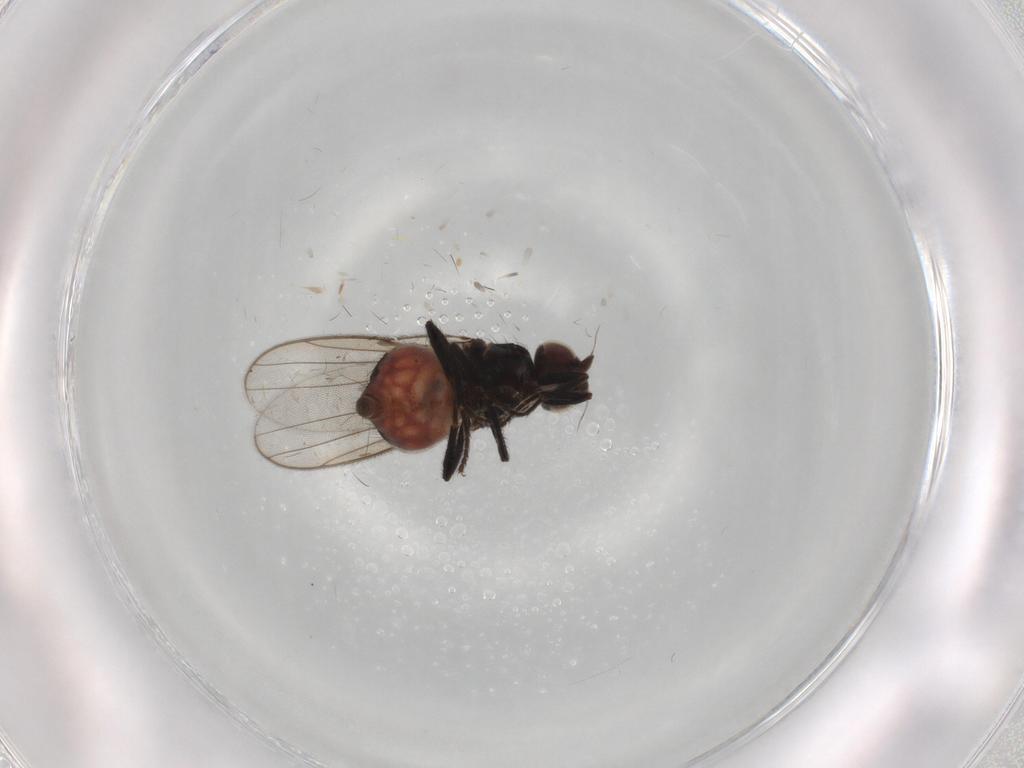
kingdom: Animalia
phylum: Arthropoda
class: Insecta
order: Diptera
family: Chloropidae
